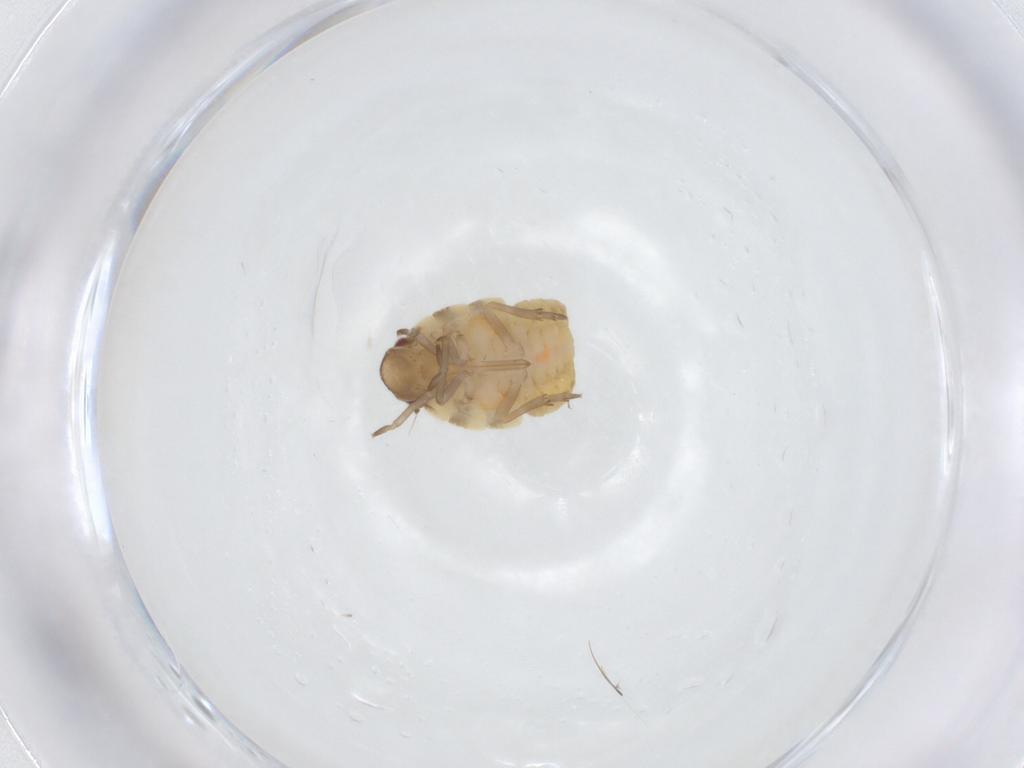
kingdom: Animalia
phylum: Arthropoda
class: Insecta
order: Hemiptera
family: Flatidae
